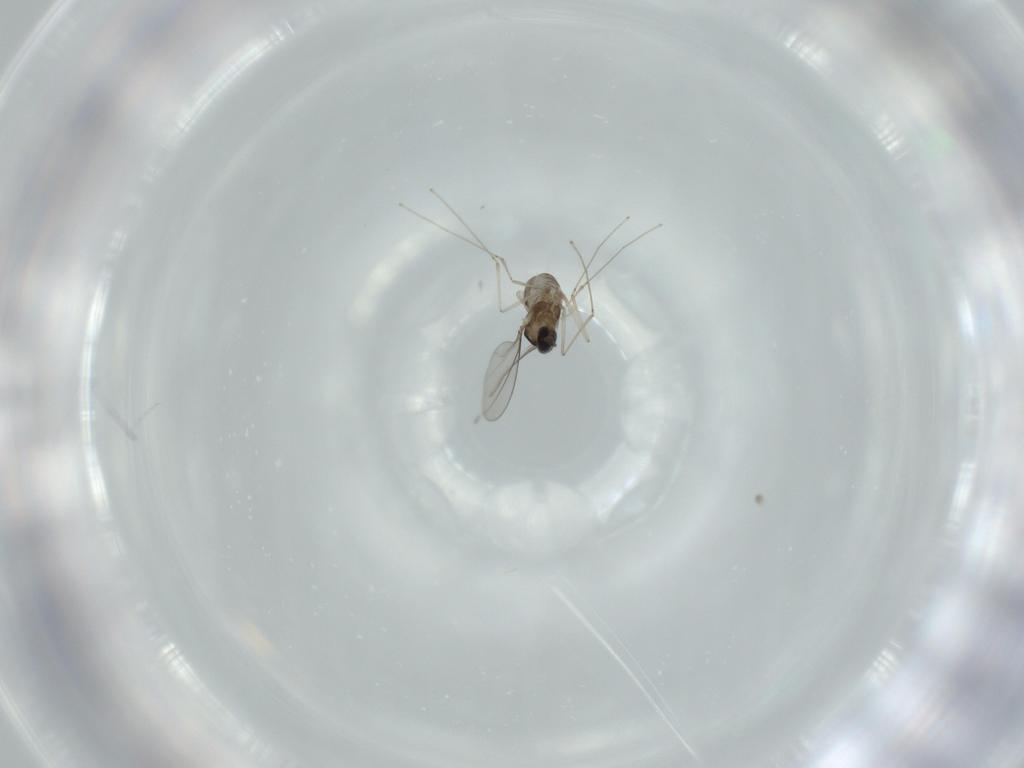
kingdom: Animalia
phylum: Arthropoda
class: Insecta
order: Diptera
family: Cecidomyiidae
